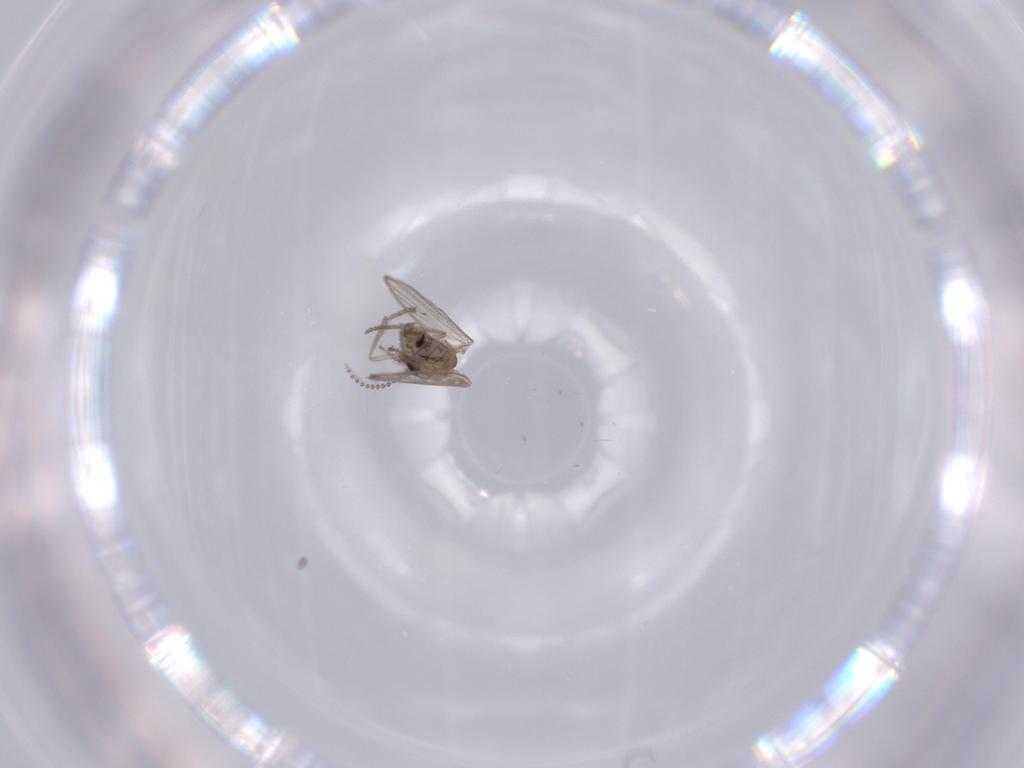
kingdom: Animalia
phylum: Arthropoda
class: Insecta
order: Diptera
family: Psychodidae
